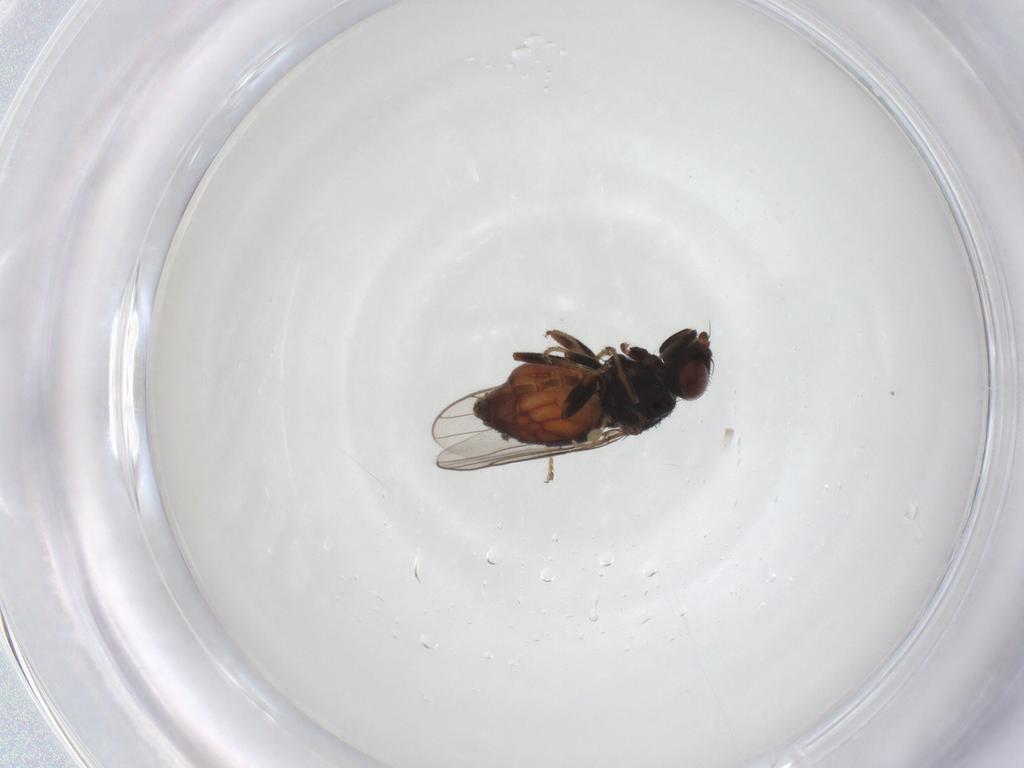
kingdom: Animalia
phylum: Arthropoda
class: Insecta
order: Diptera
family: Chloropidae
